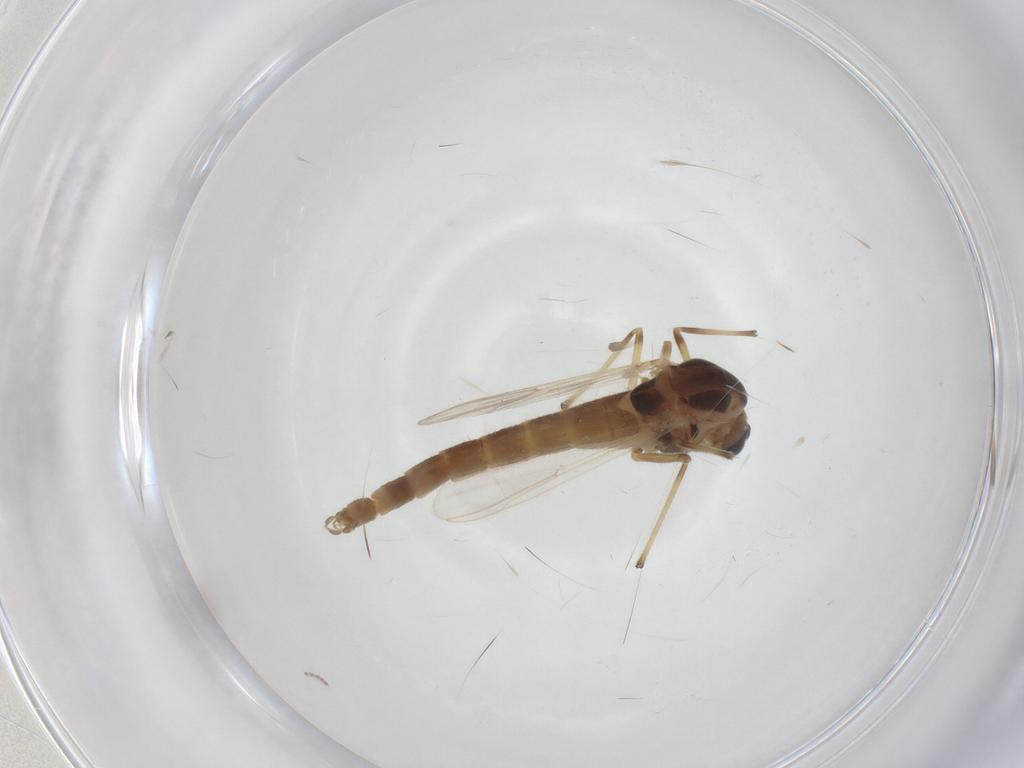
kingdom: Animalia
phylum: Arthropoda
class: Insecta
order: Diptera
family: Chironomidae
